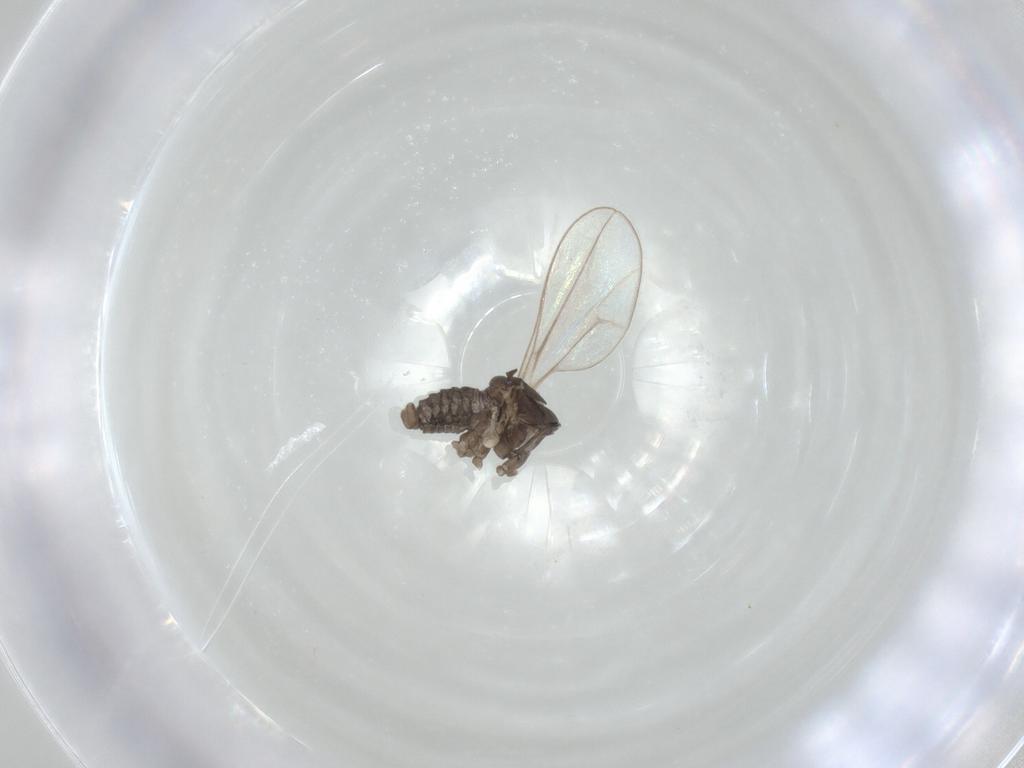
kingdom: Animalia
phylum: Arthropoda
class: Insecta
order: Diptera
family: Cecidomyiidae
